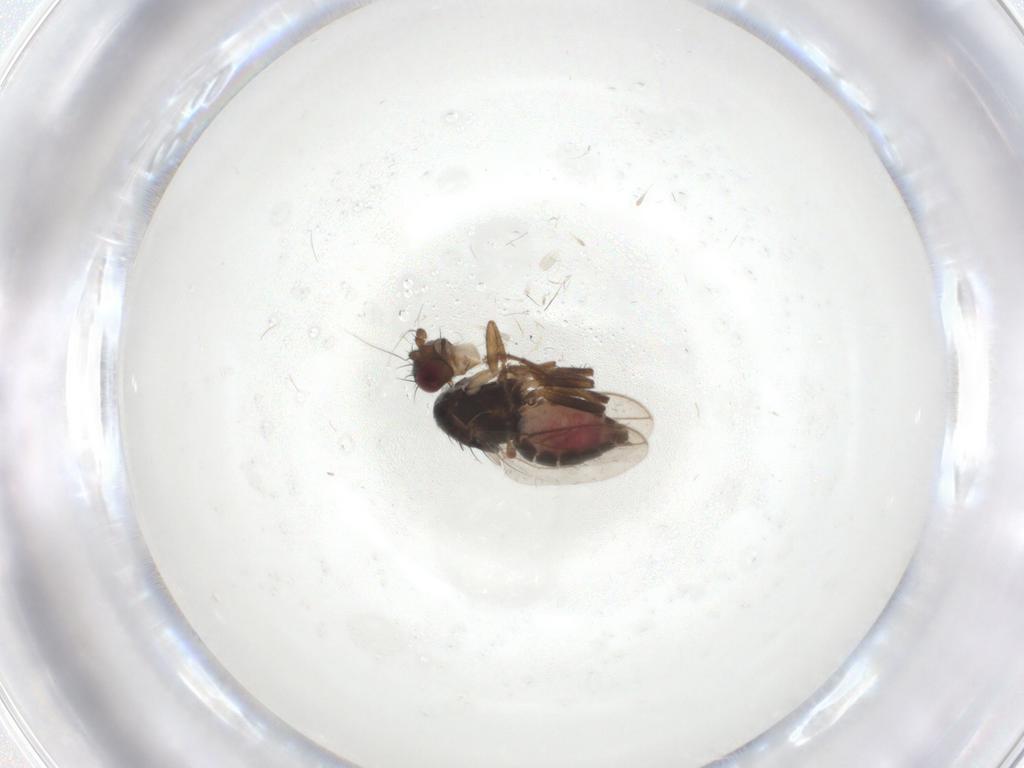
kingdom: Animalia
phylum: Arthropoda
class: Insecta
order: Diptera
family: Sphaeroceridae
